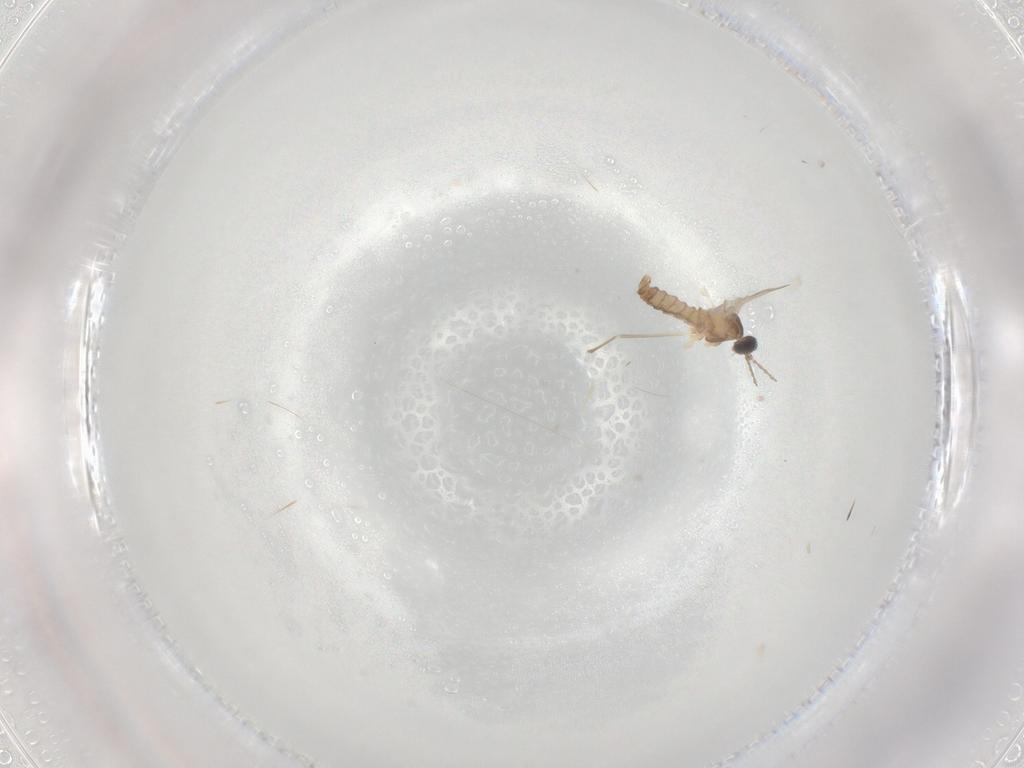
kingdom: Animalia
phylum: Arthropoda
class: Insecta
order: Diptera
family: Cecidomyiidae
